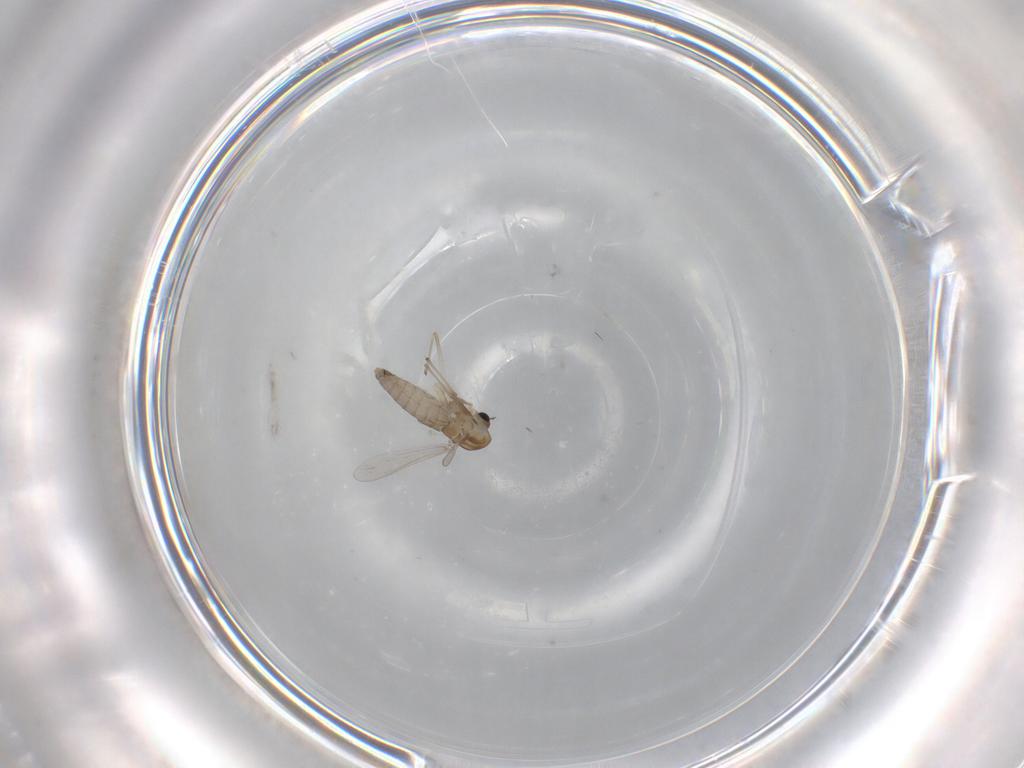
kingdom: Animalia
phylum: Arthropoda
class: Insecta
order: Diptera
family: Chironomidae
